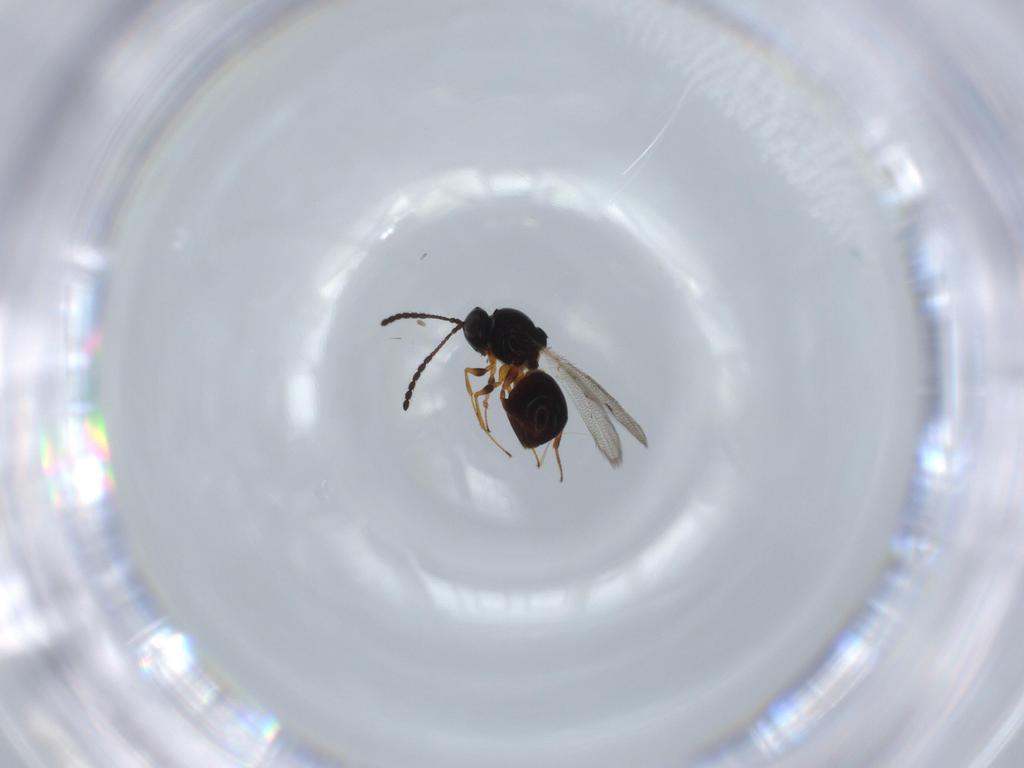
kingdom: Animalia
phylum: Arthropoda
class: Insecta
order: Hymenoptera
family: Figitidae
